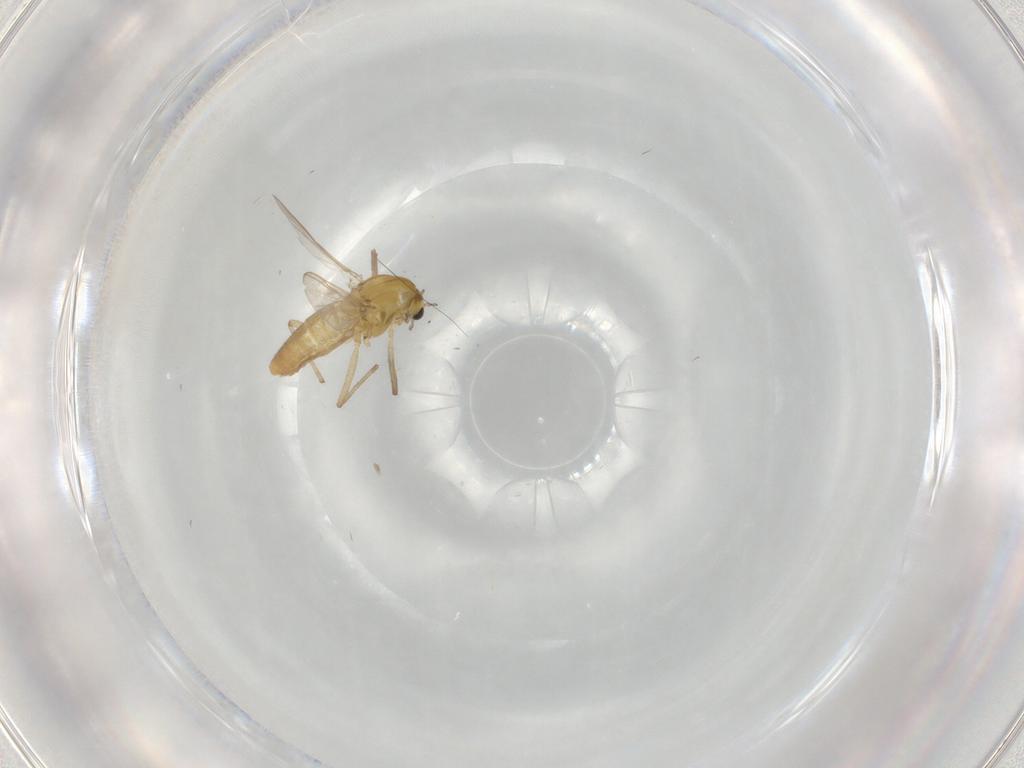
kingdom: Animalia
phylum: Arthropoda
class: Insecta
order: Diptera
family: Chironomidae
